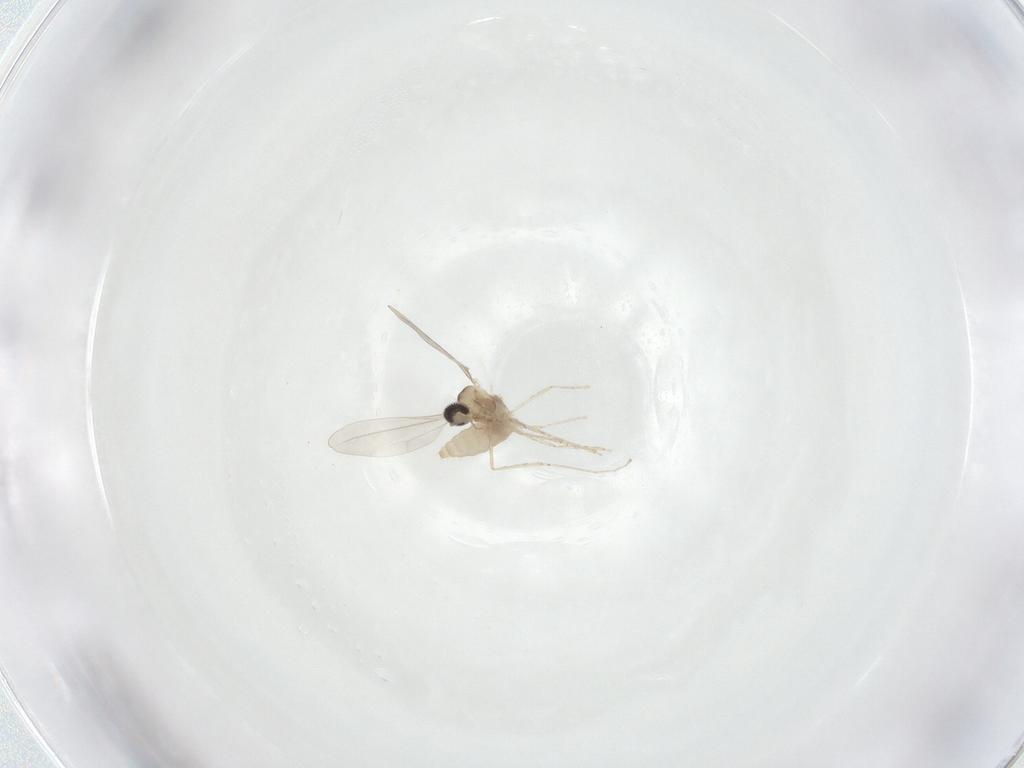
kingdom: Animalia
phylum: Arthropoda
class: Insecta
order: Diptera
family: Cecidomyiidae
